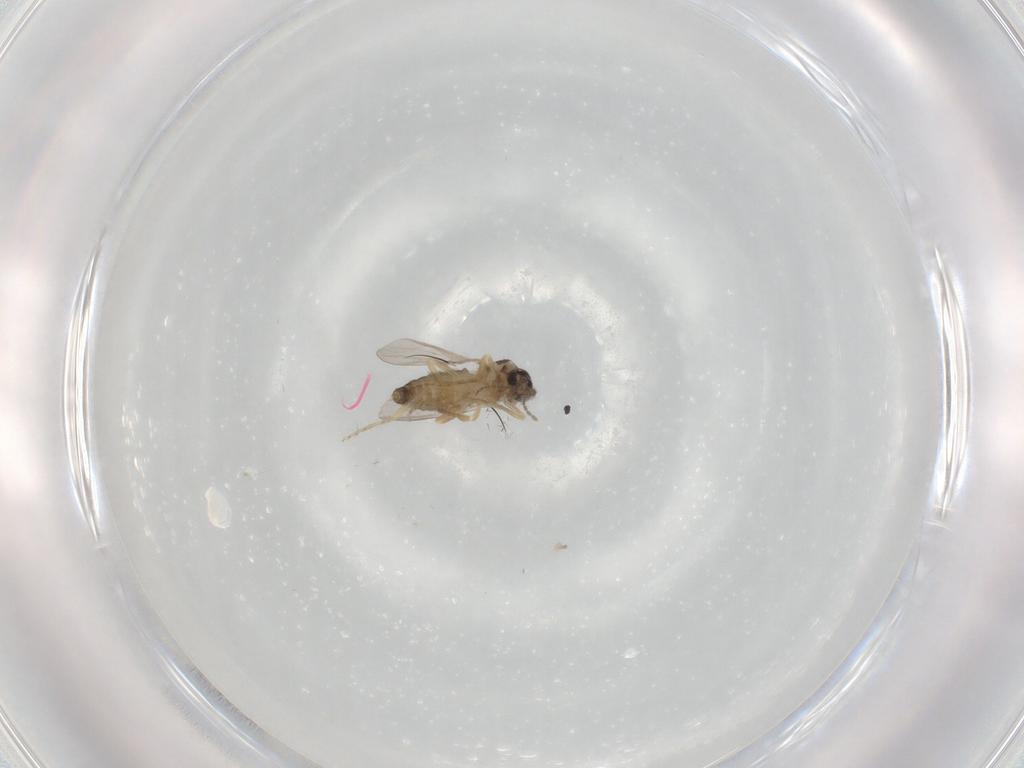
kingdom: Animalia
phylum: Arthropoda
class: Insecta
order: Diptera
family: Ceratopogonidae
